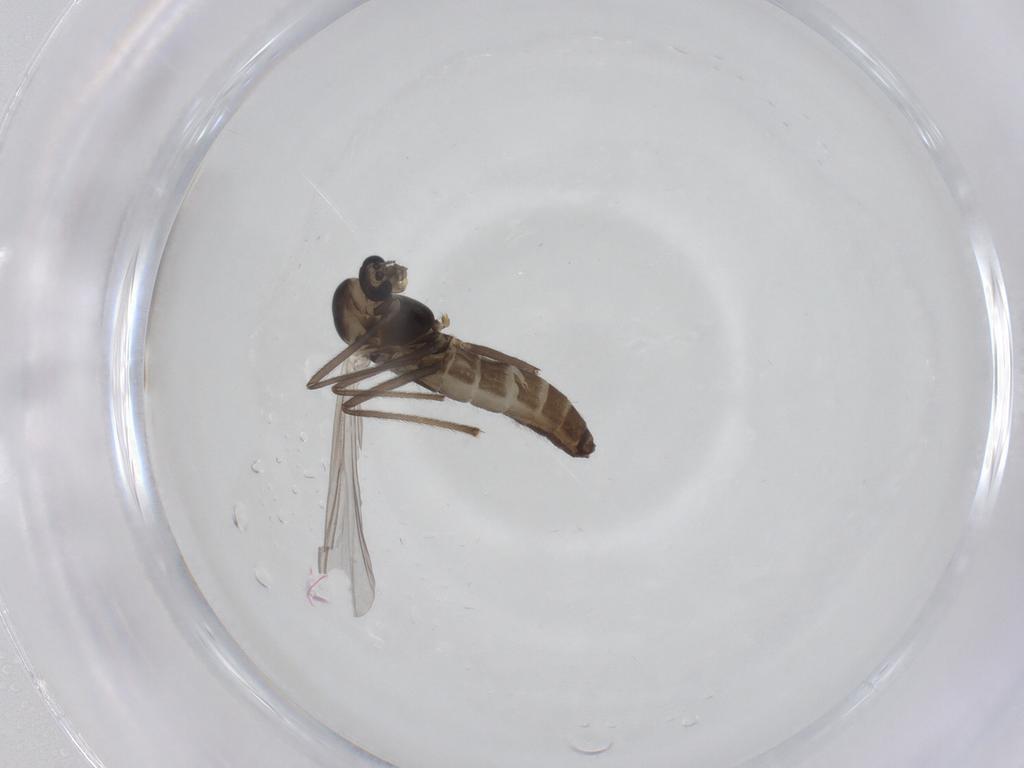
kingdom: Animalia
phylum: Arthropoda
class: Insecta
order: Diptera
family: Chironomidae
